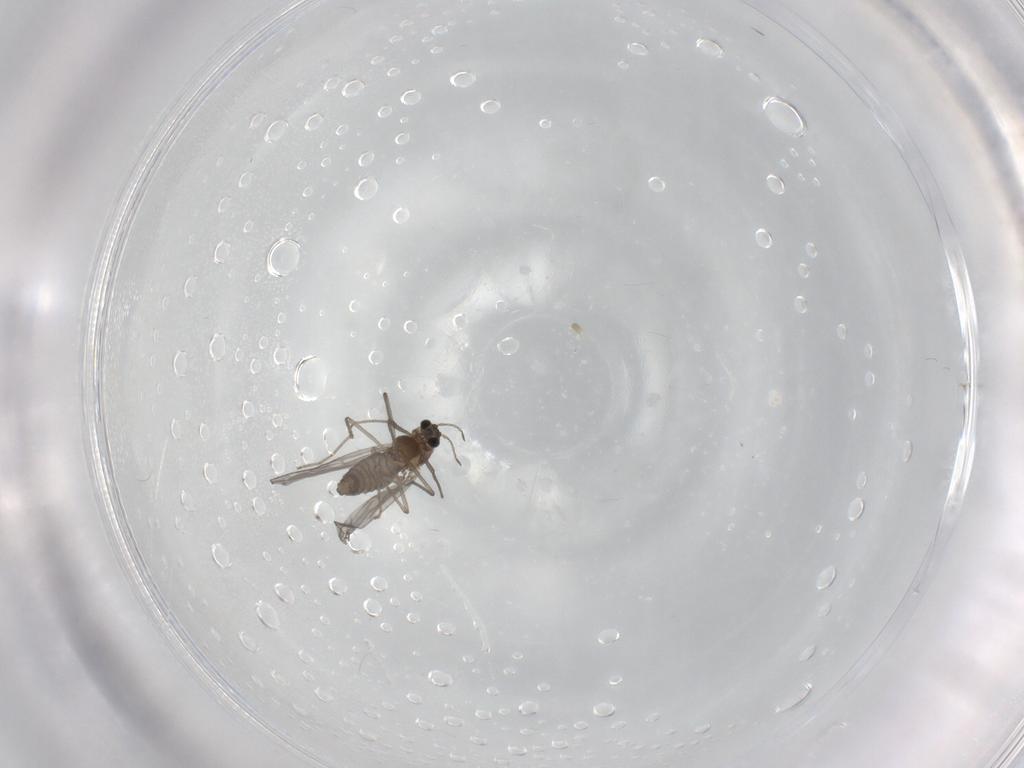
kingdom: Animalia
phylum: Arthropoda
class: Insecta
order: Diptera
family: Chironomidae
